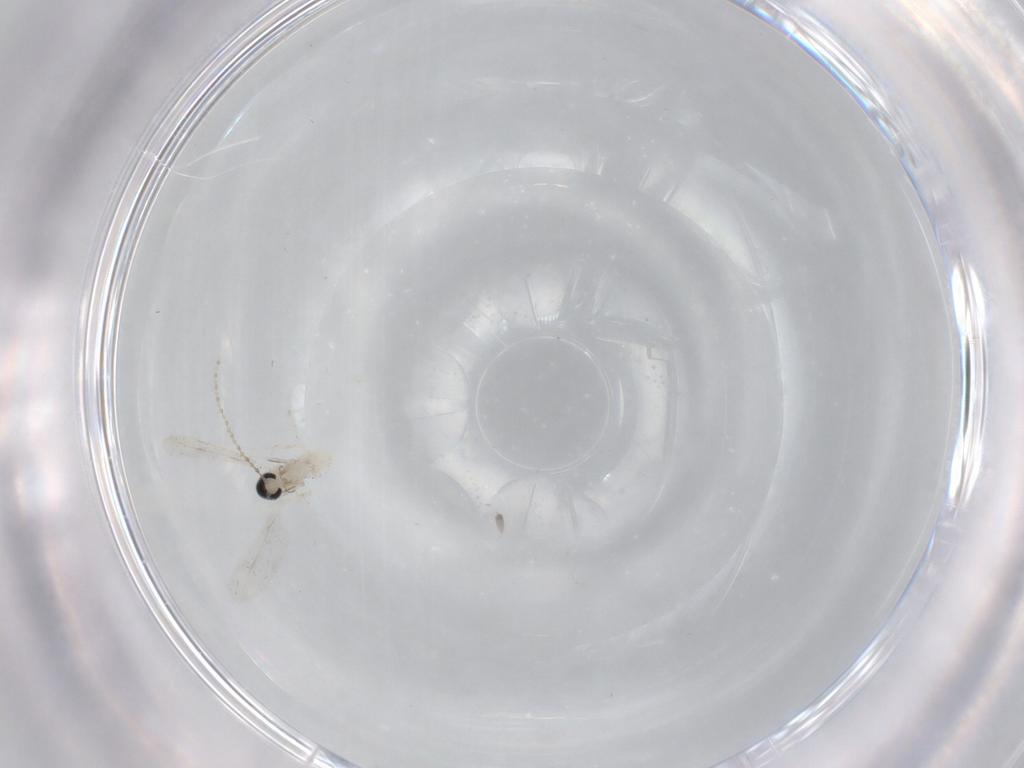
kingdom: Animalia
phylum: Arthropoda
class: Insecta
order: Diptera
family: Cecidomyiidae
